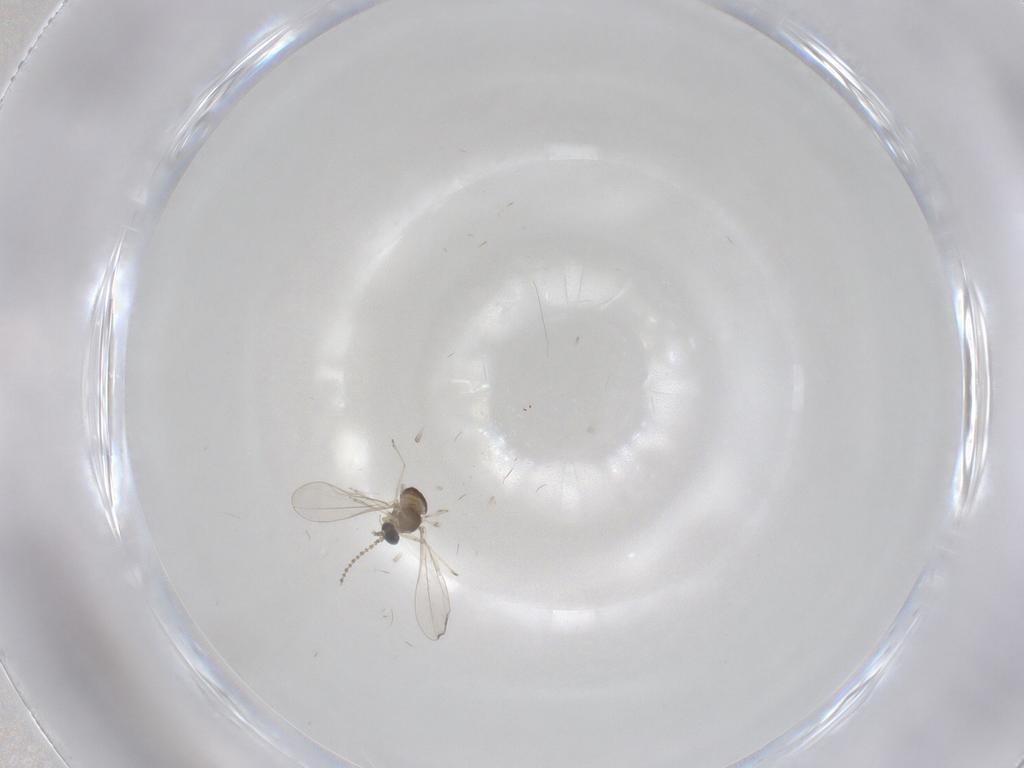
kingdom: Animalia
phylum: Arthropoda
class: Insecta
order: Diptera
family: Cecidomyiidae
